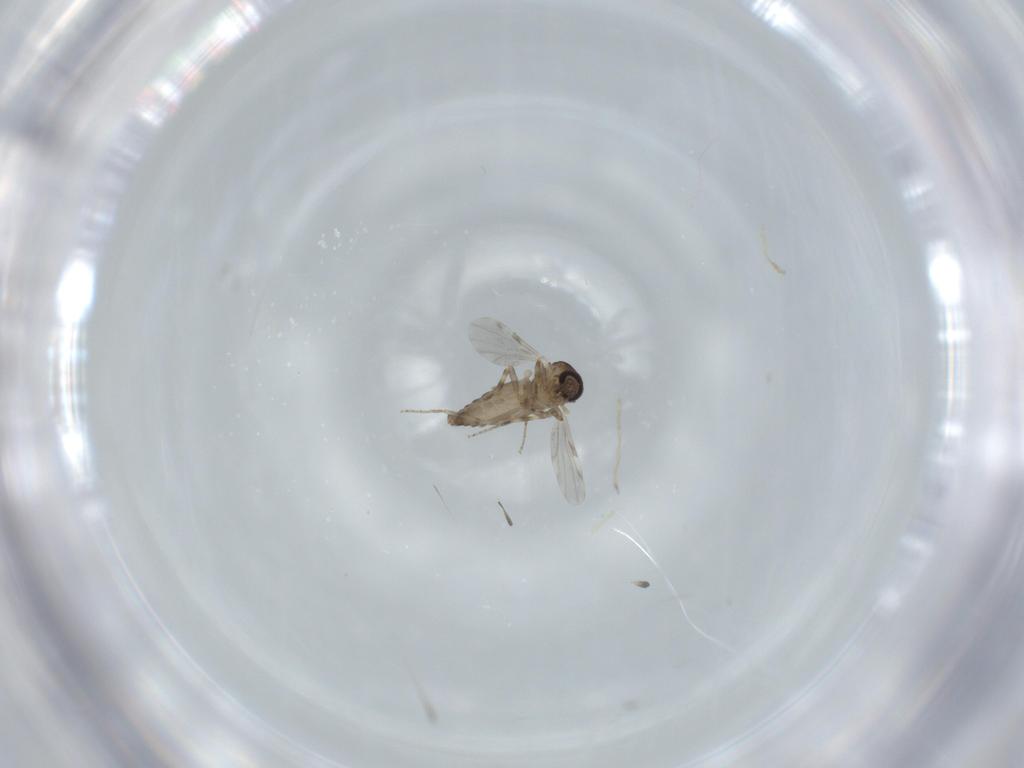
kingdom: Animalia
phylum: Arthropoda
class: Insecta
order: Diptera
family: Ceratopogonidae
